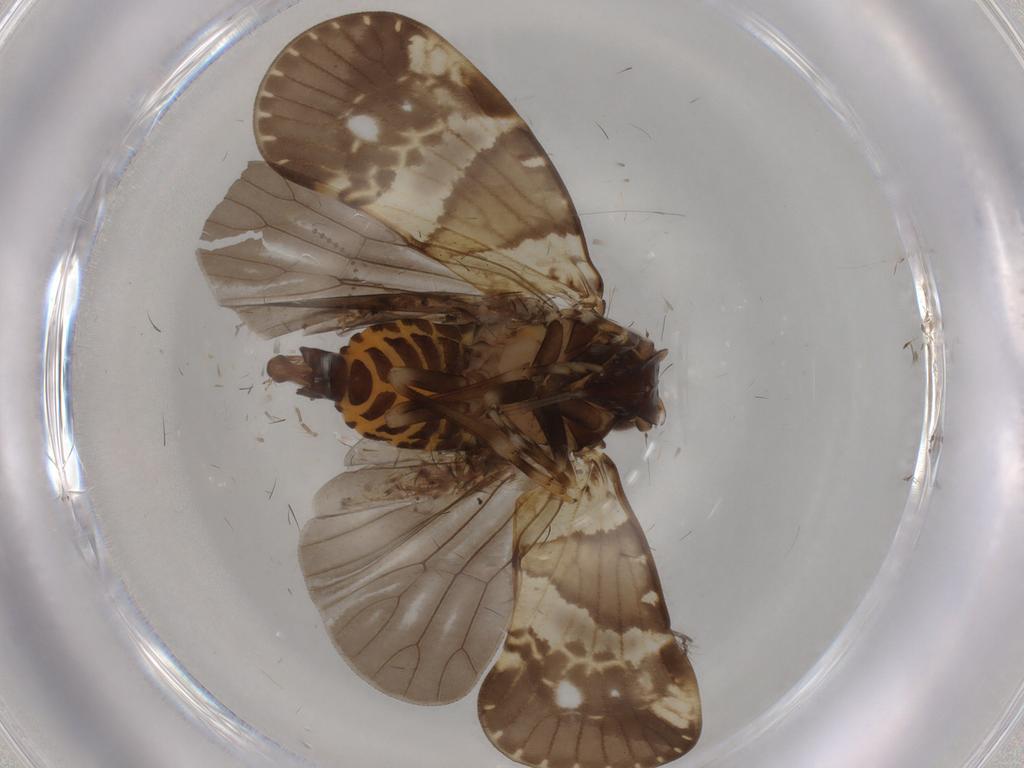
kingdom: Animalia
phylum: Arthropoda
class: Insecta
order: Hemiptera
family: Cixiidae
